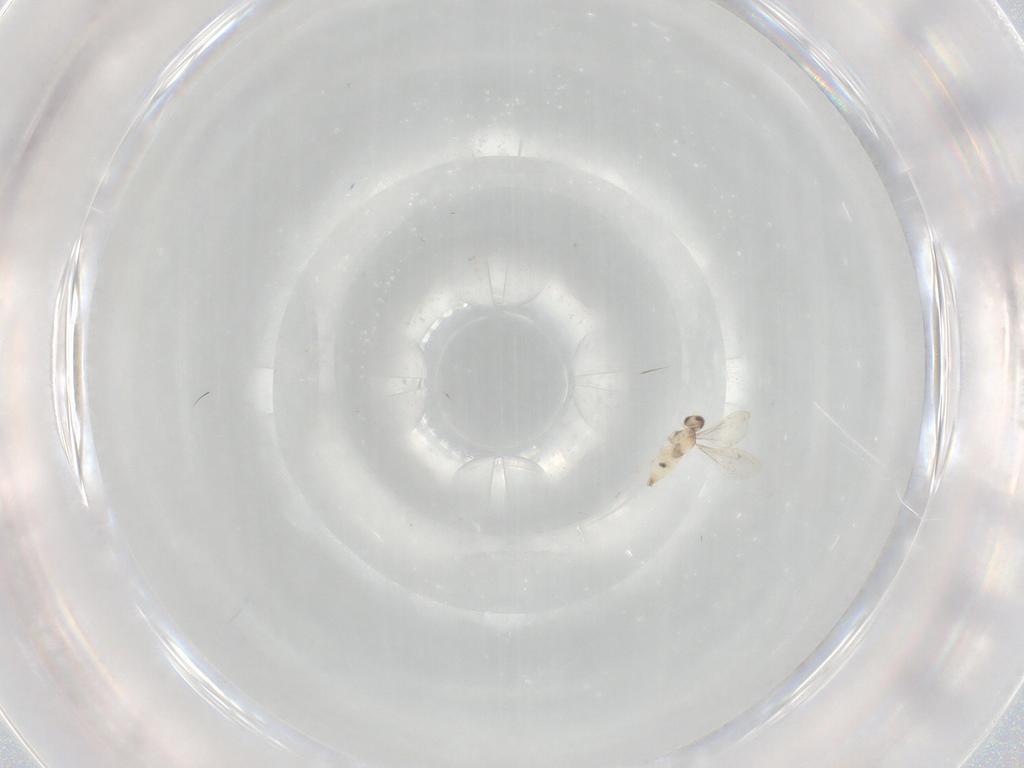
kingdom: Animalia
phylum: Arthropoda
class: Insecta
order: Diptera
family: Cecidomyiidae
